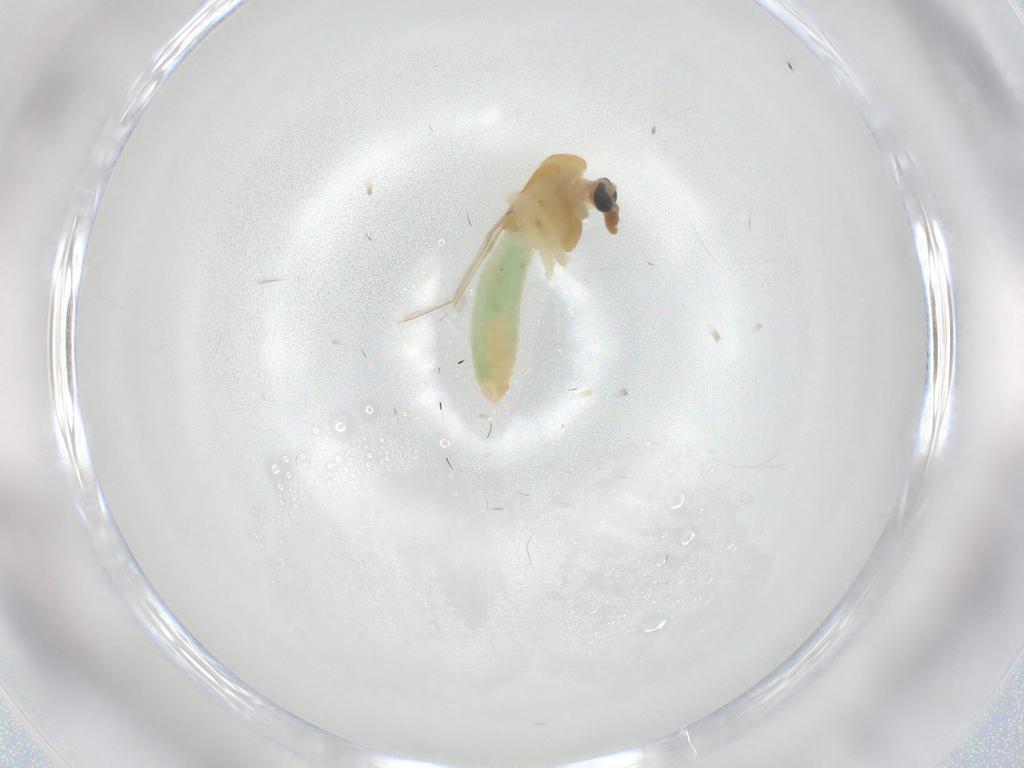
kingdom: Animalia
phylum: Arthropoda
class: Insecta
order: Diptera
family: Chironomidae
